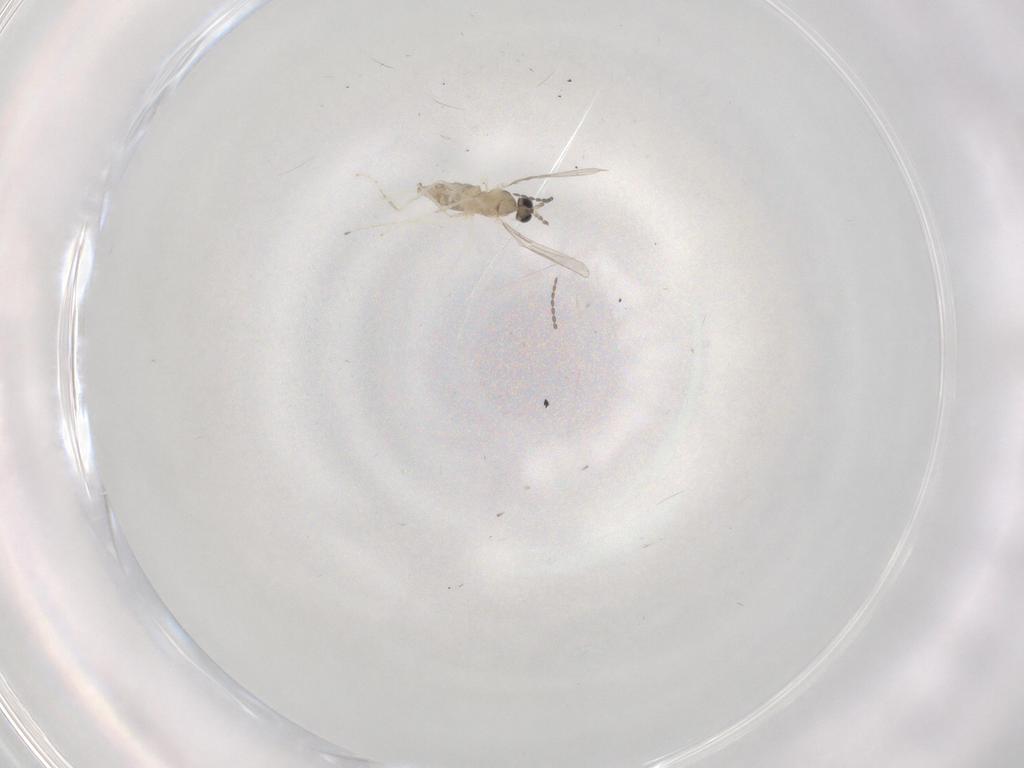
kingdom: Animalia
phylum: Arthropoda
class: Insecta
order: Diptera
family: Cecidomyiidae
